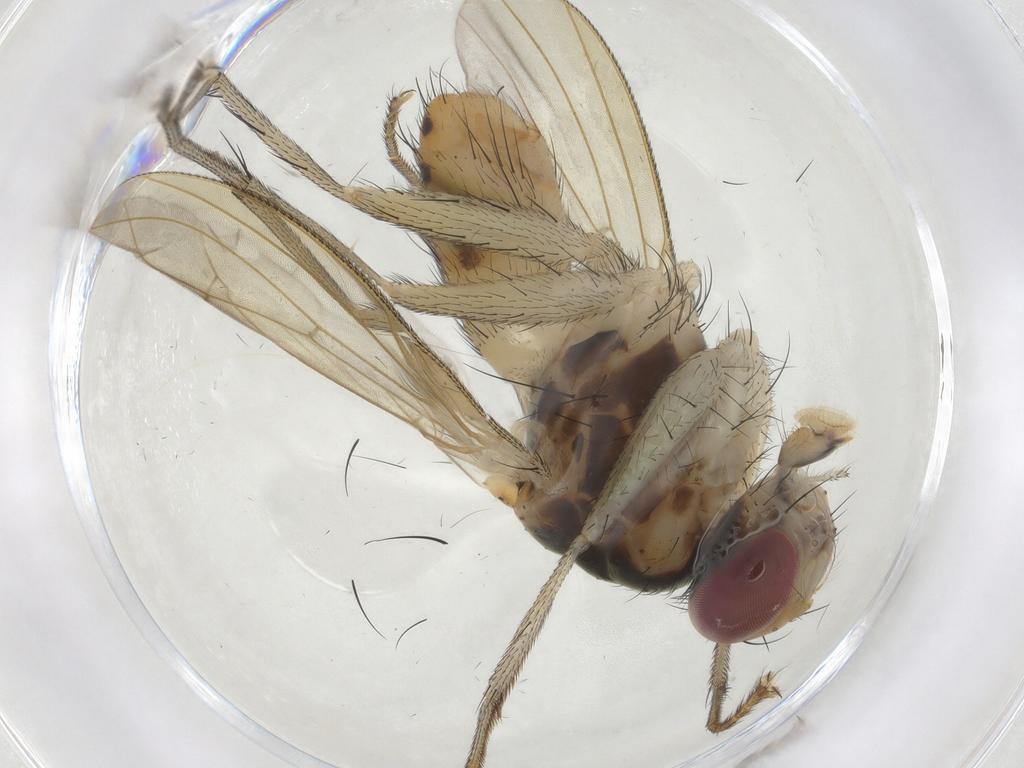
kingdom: Animalia
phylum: Arthropoda
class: Insecta
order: Diptera
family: Muscidae
